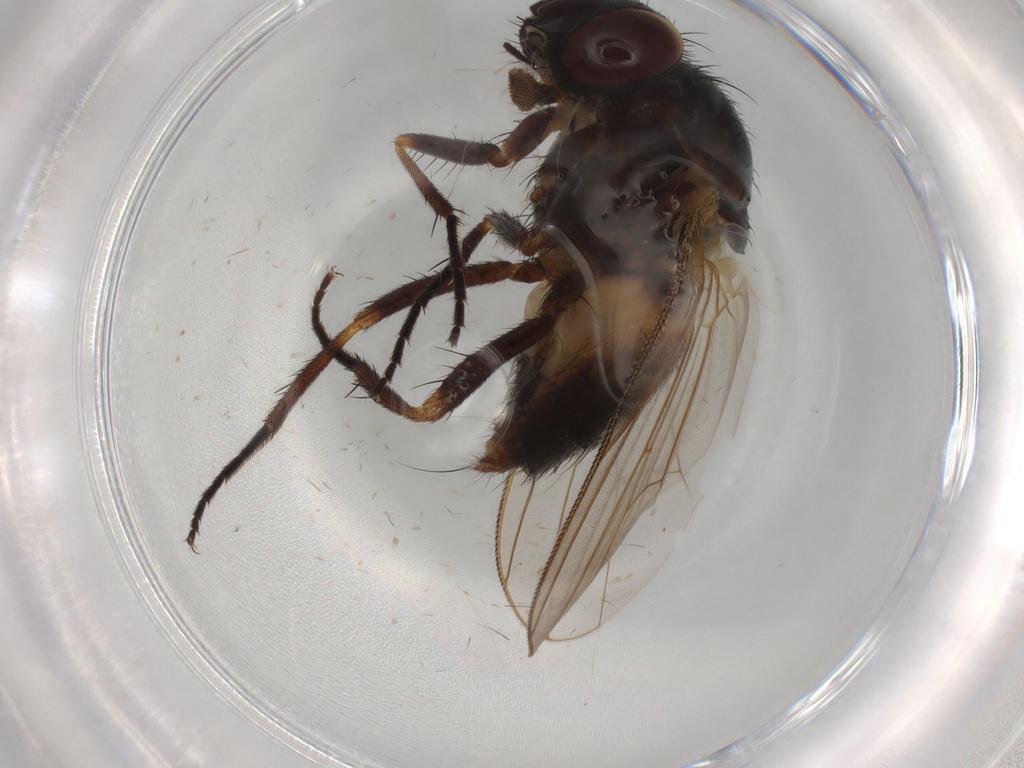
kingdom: Animalia
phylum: Arthropoda
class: Insecta
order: Diptera
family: Fannia
